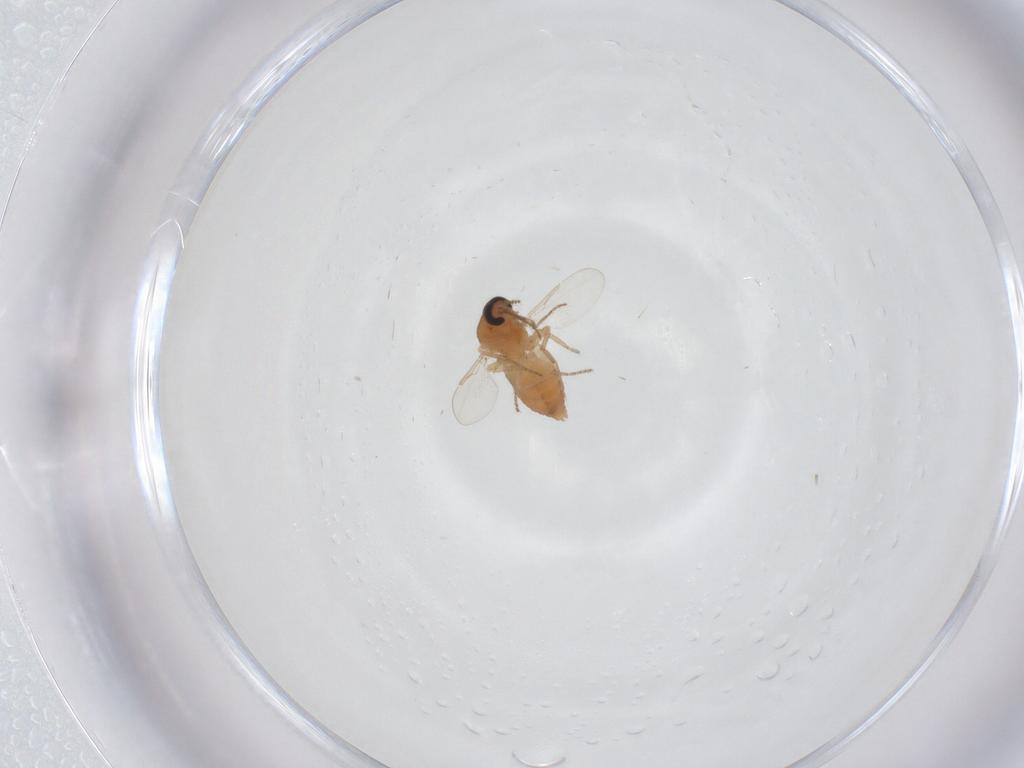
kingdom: Animalia
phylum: Arthropoda
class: Insecta
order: Diptera
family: Ceratopogonidae
